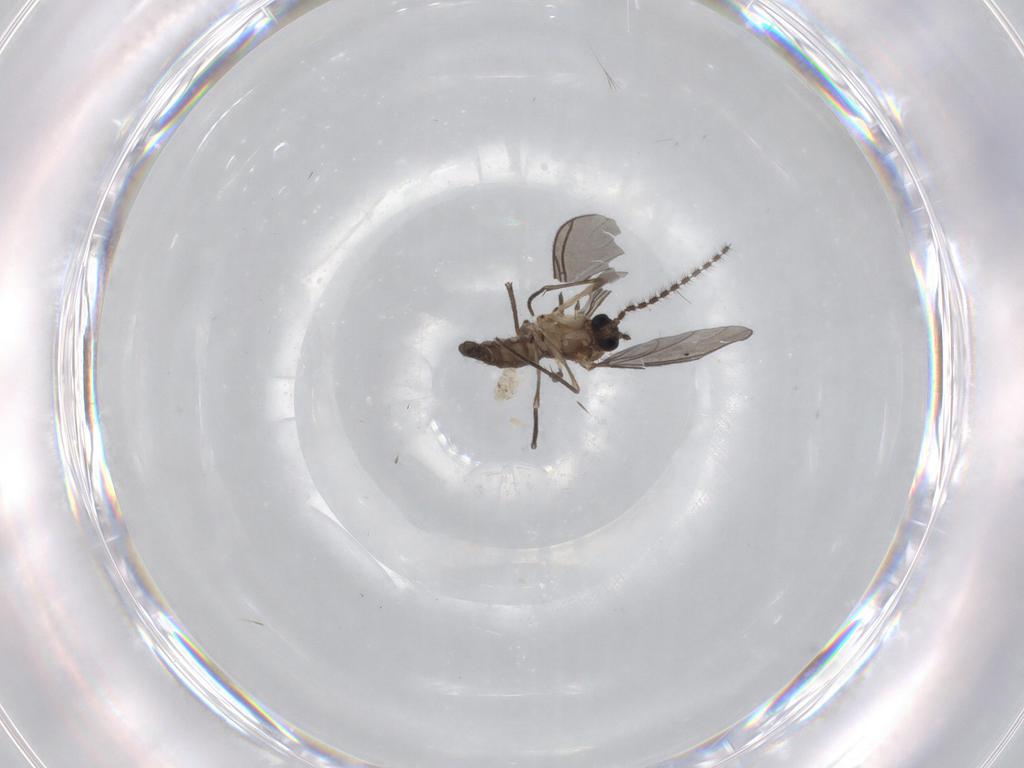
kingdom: Animalia
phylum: Arthropoda
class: Insecta
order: Diptera
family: Sciaridae
